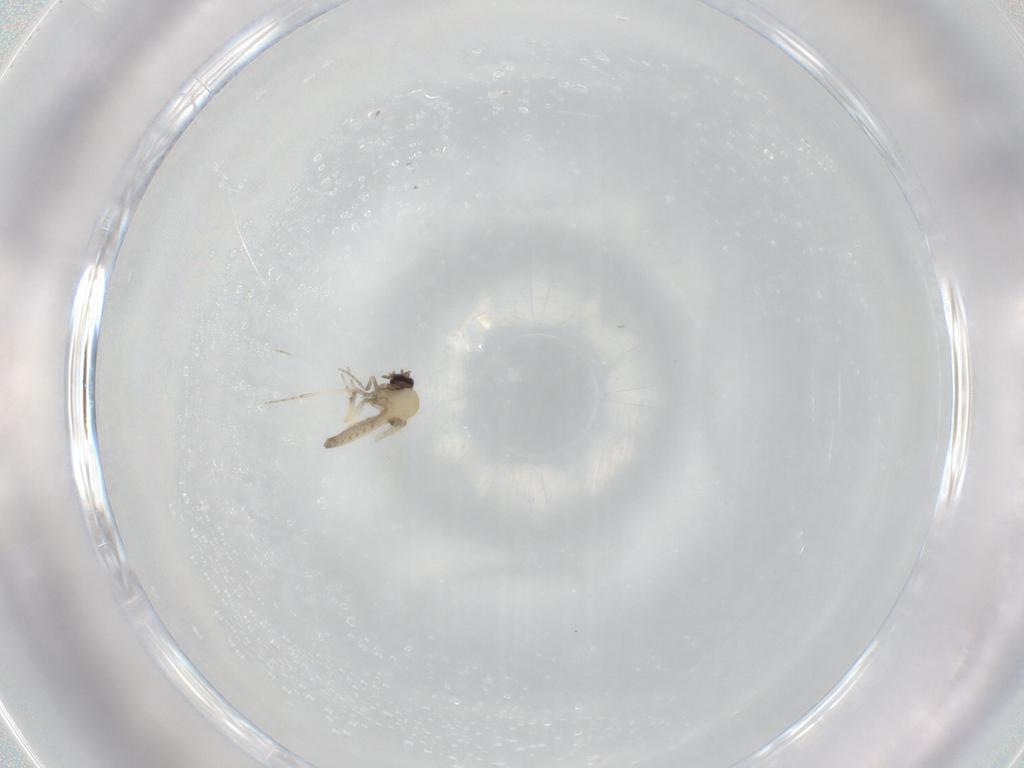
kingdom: Animalia
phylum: Arthropoda
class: Insecta
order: Diptera
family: Ceratopogonidae
